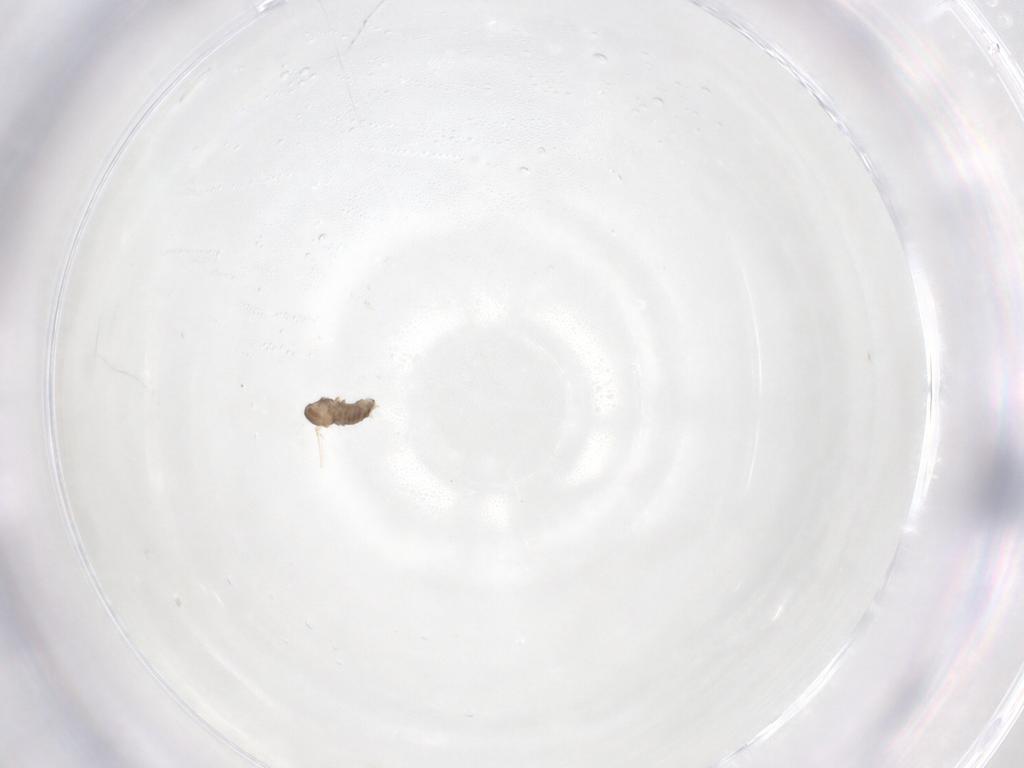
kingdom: Animalia
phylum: Arthropoda
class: Insecta
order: Diptera
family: Cecidomyiidae
